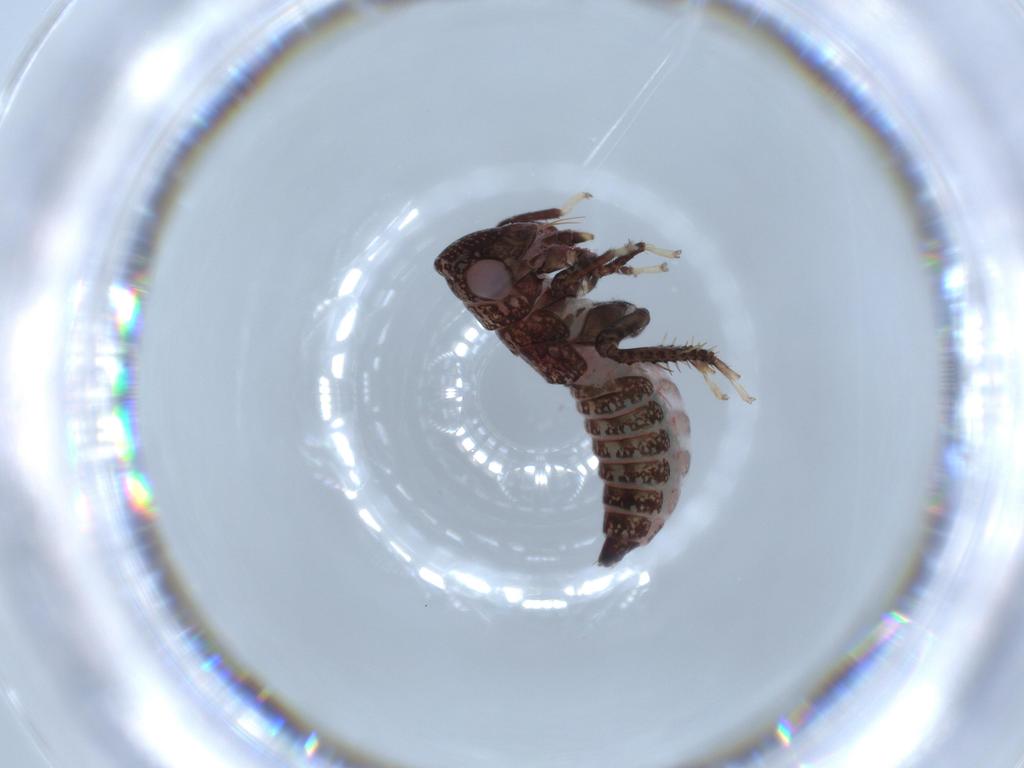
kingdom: Animalia
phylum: Arthropoda
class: Insecta
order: Hemiptera
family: Cicadellidae
